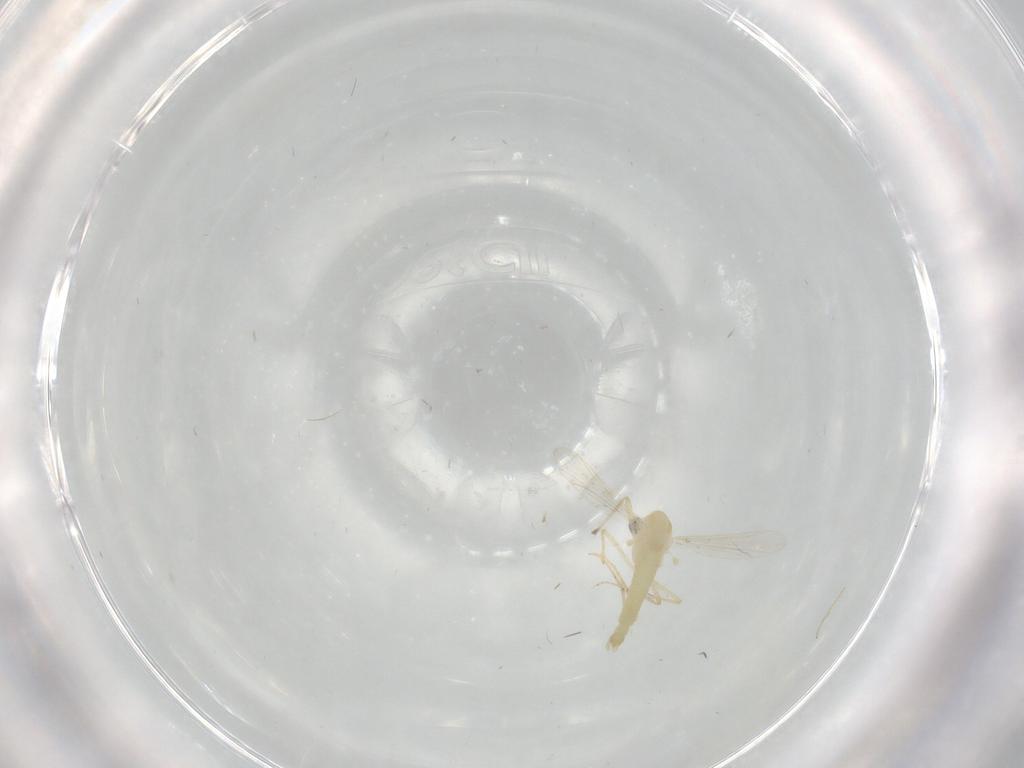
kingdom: Animalia
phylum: Arthropoda
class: Insecta
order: Diptera
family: Chironomidae
